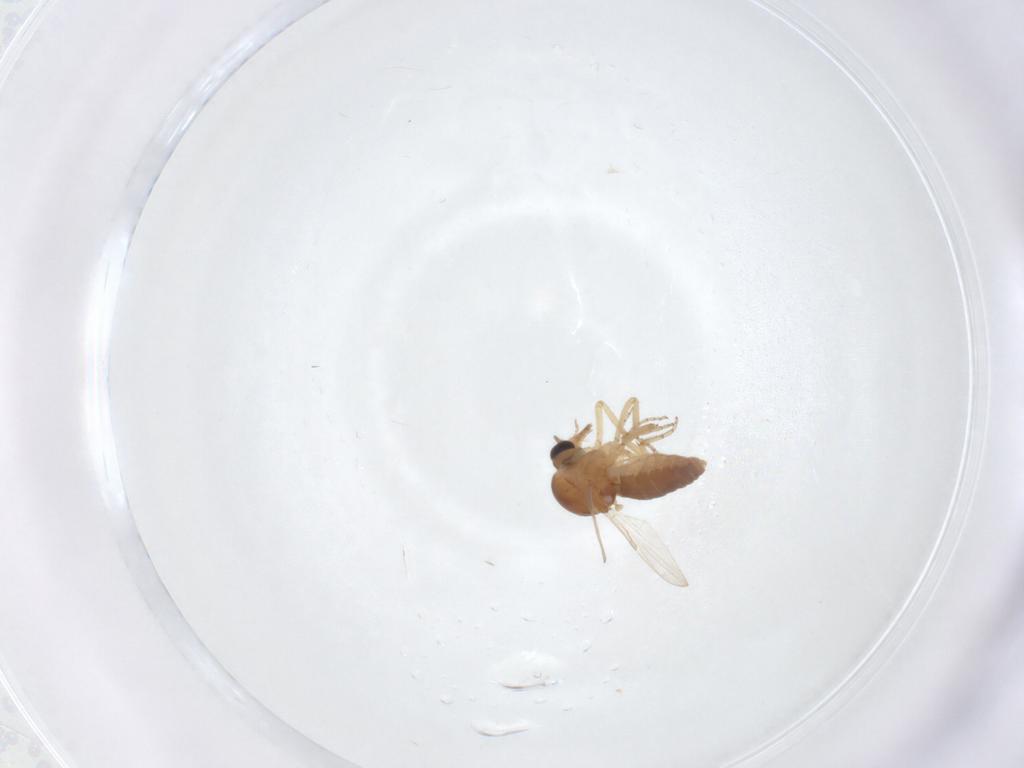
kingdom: Animalia
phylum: Arthropoda
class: Insecta
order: Diptera
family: Ceratopogonidae
